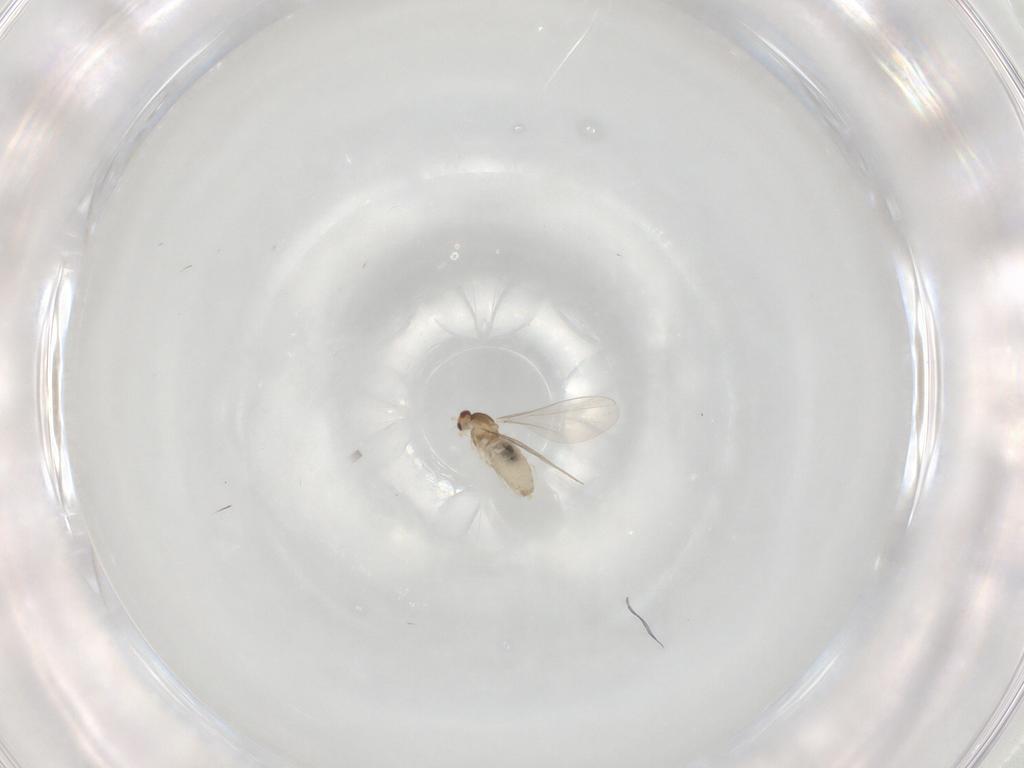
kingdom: Animalia
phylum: Arthropoda
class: Insecta
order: Diptera
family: Cecidomyiidae
